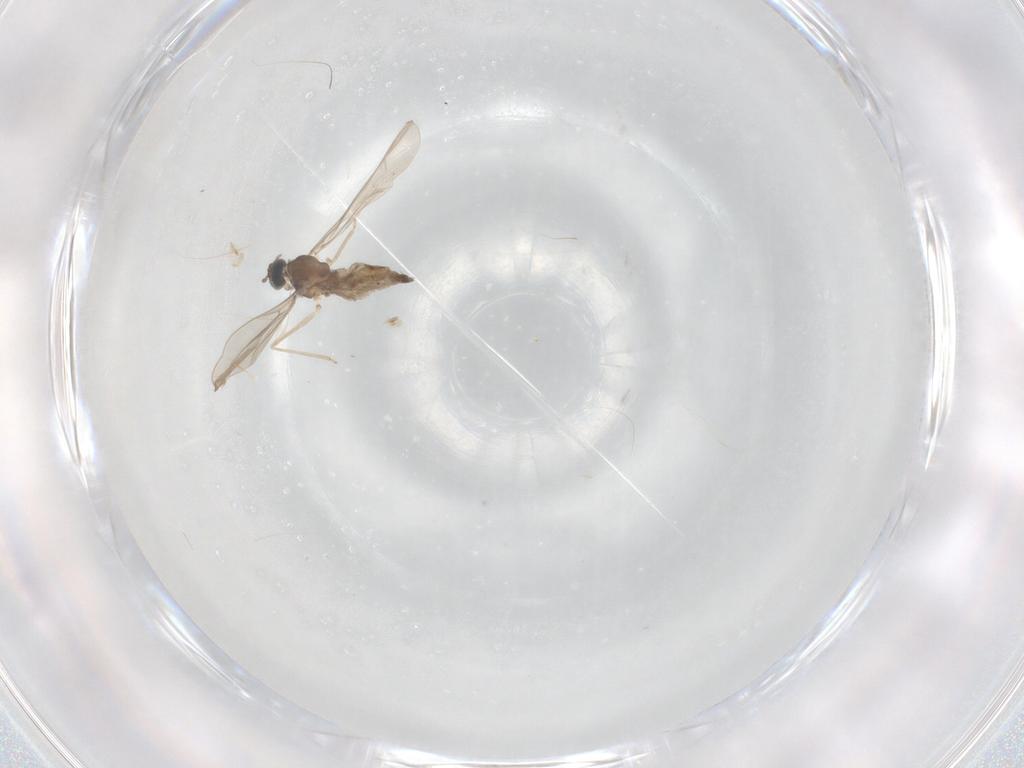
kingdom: Animalia
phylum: Arthropoda
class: Insecta
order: Diptera
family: Cecidomyiidae
